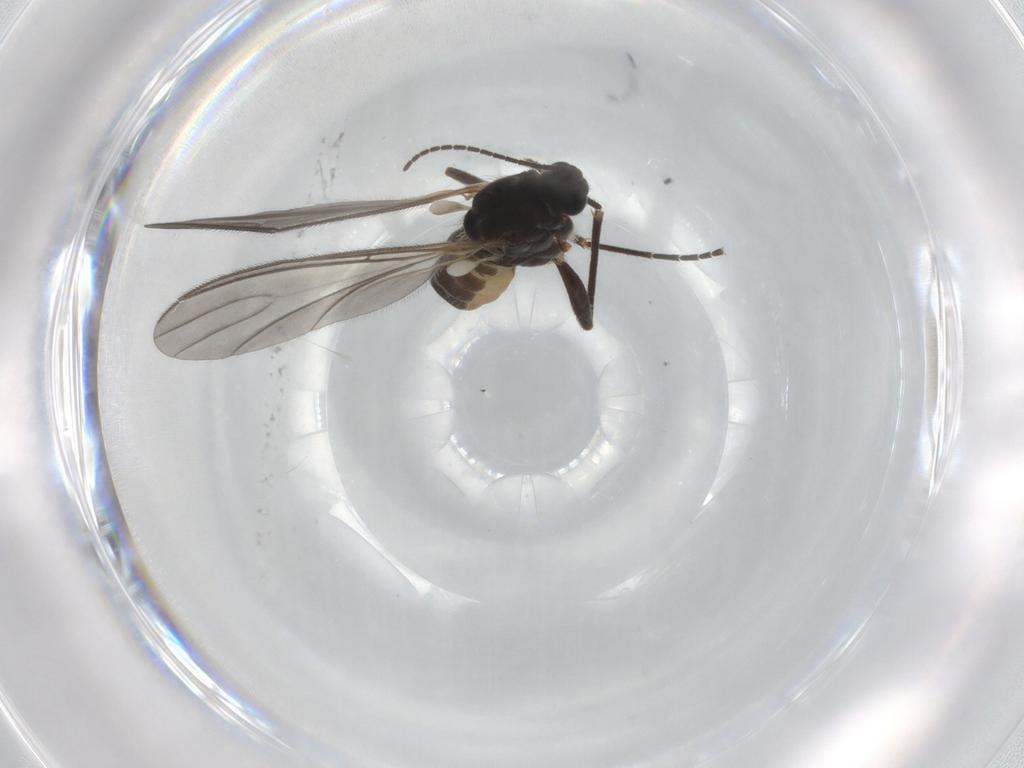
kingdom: Animalia
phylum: Arthropoda
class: Insecta
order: Diptera
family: Sciaridae
